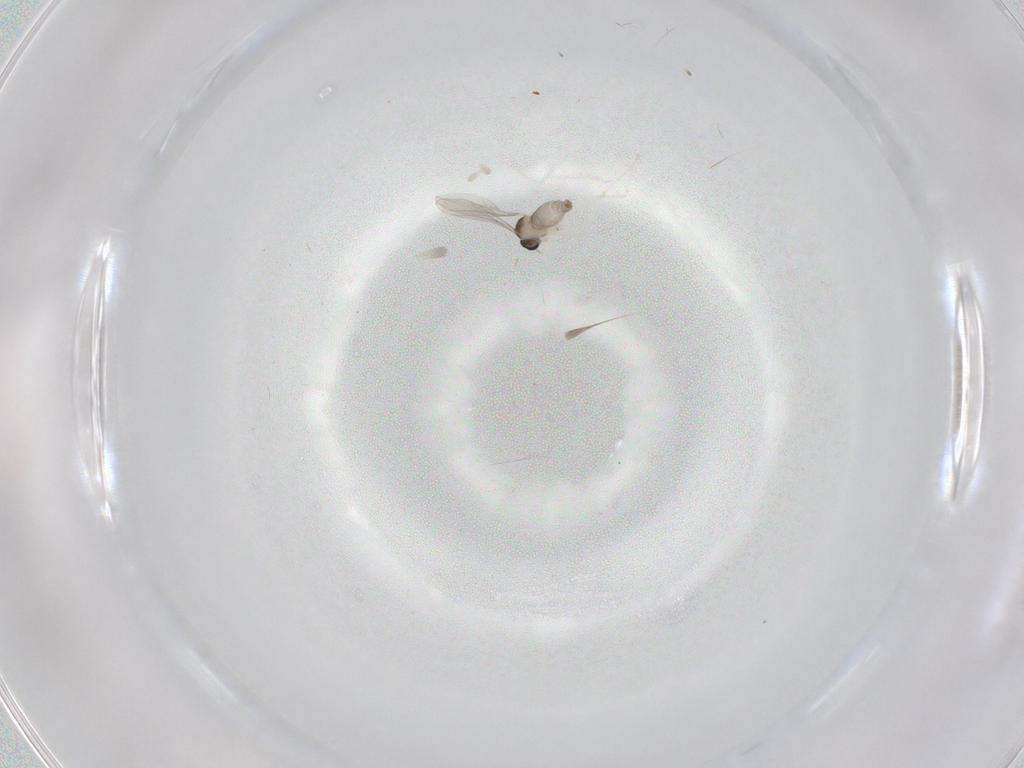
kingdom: Animalia
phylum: Arthropoda
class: Insecta
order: Diptera
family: Cecidomyiidae
